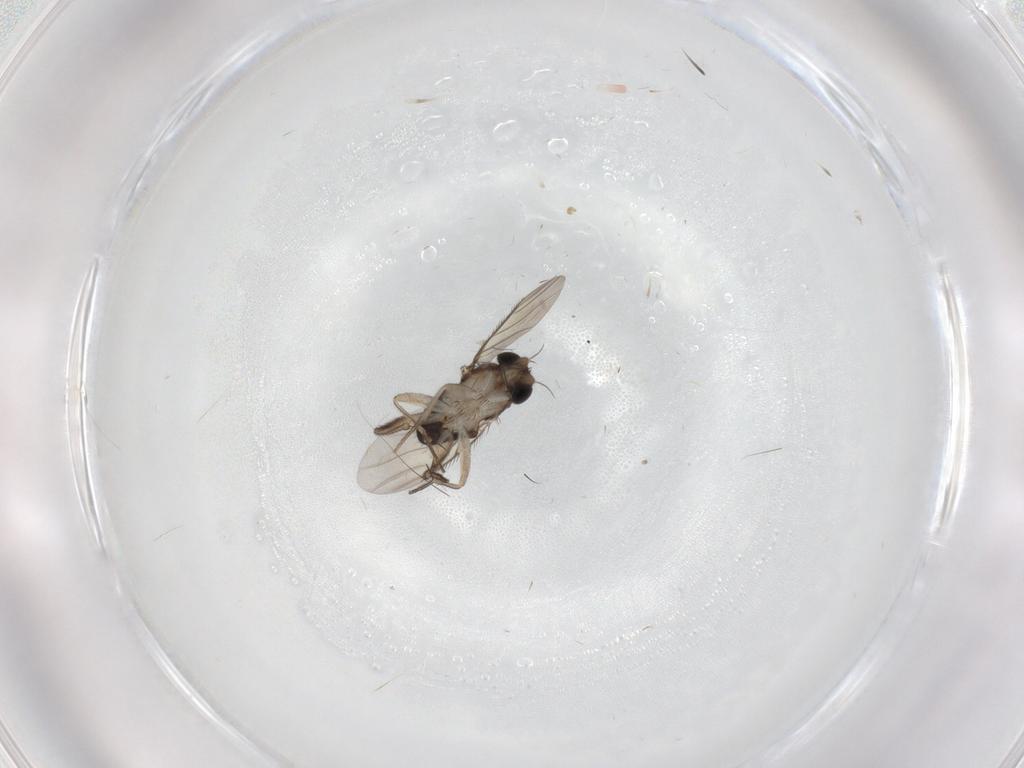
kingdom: Animalia
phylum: Arthropoda
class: Insecta
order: Diptera
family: Phoridae
